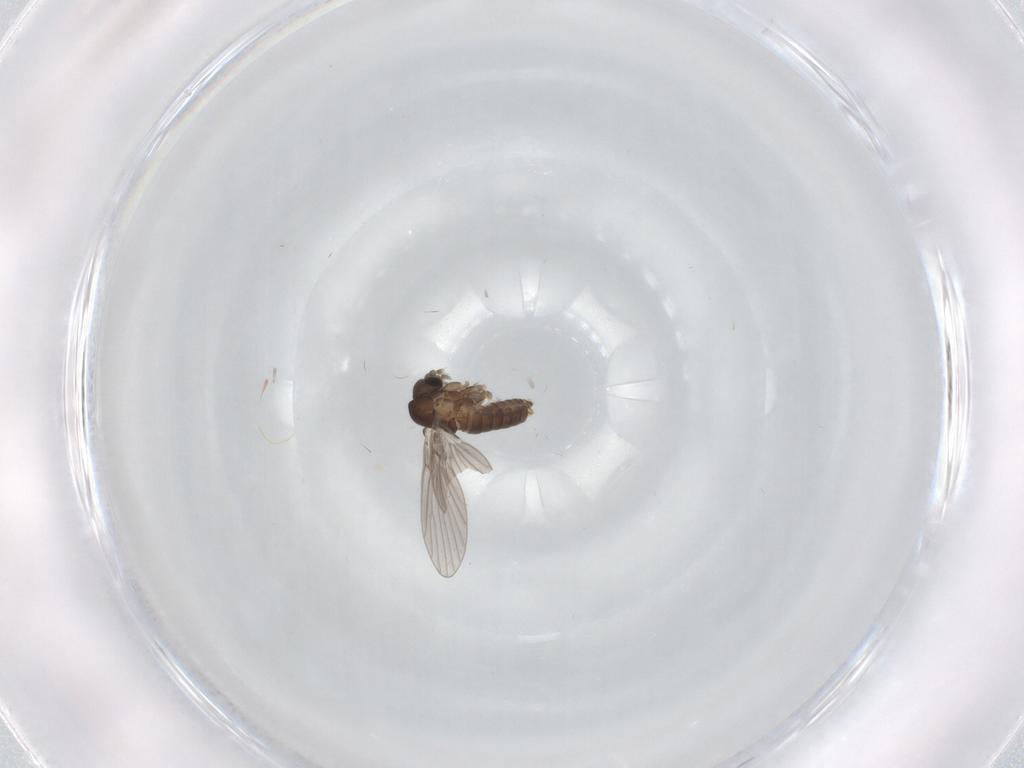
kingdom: Animalia
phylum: Arthropoda
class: Insecta
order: Diptera
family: Psychodidae
